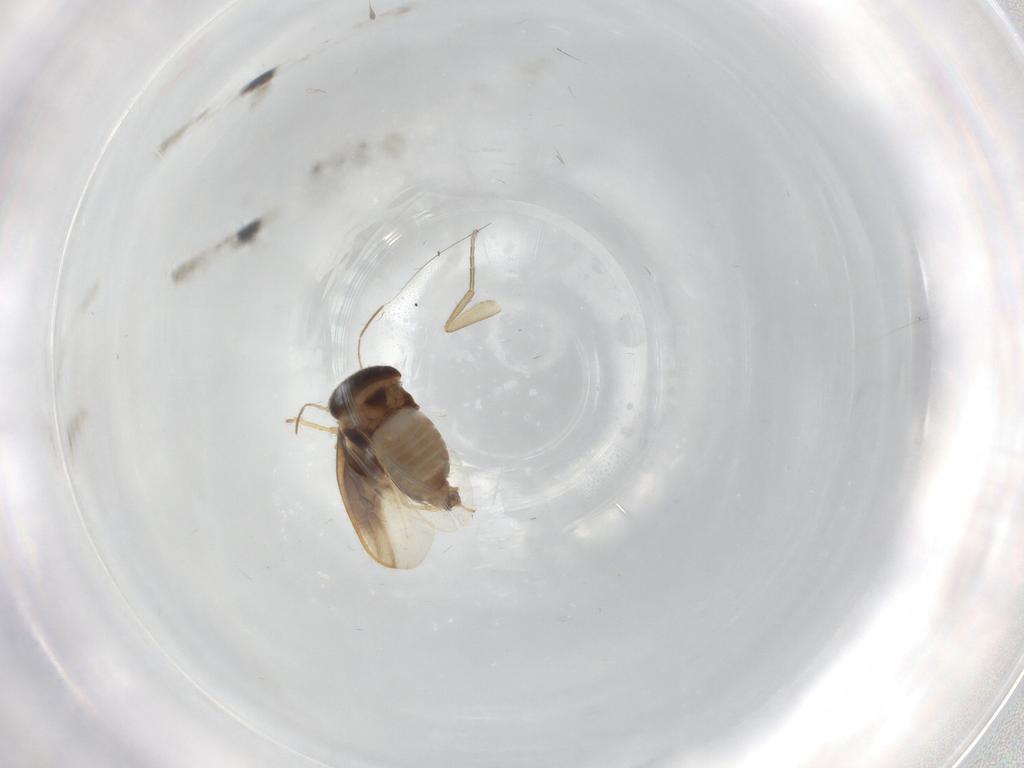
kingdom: Animalia
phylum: Arthropoda
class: Insecta
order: Hemiptera
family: Schizopteridae
